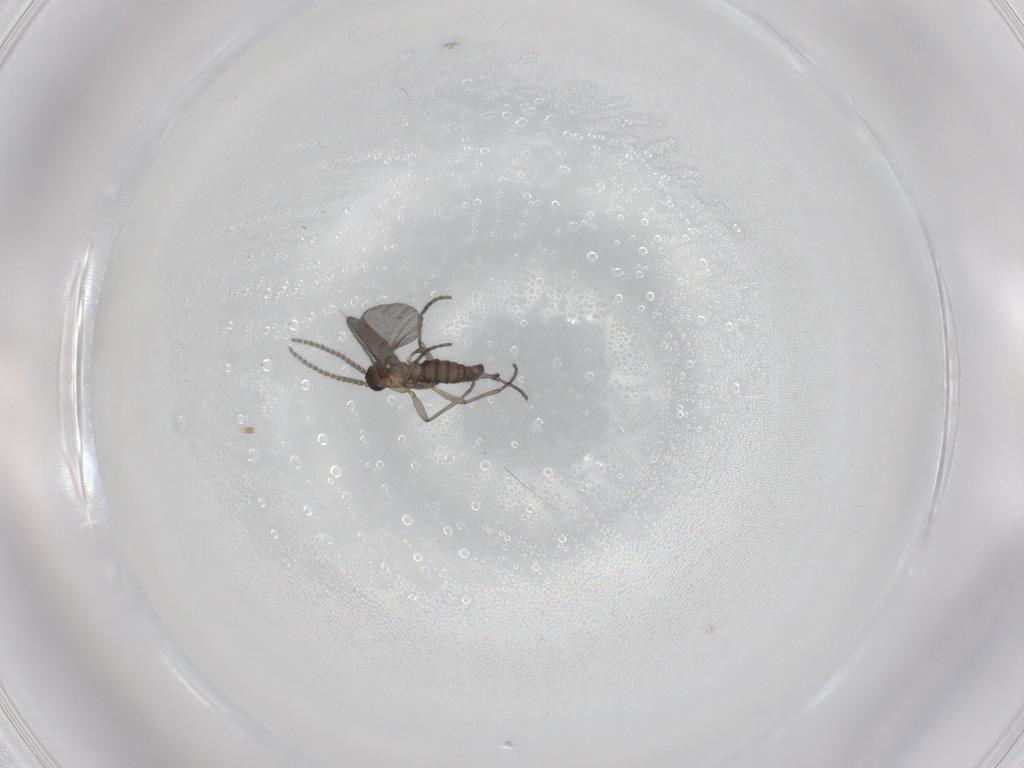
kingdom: Animalia
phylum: Arthropoda
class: Insecta
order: Diptera
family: Sciaridae
